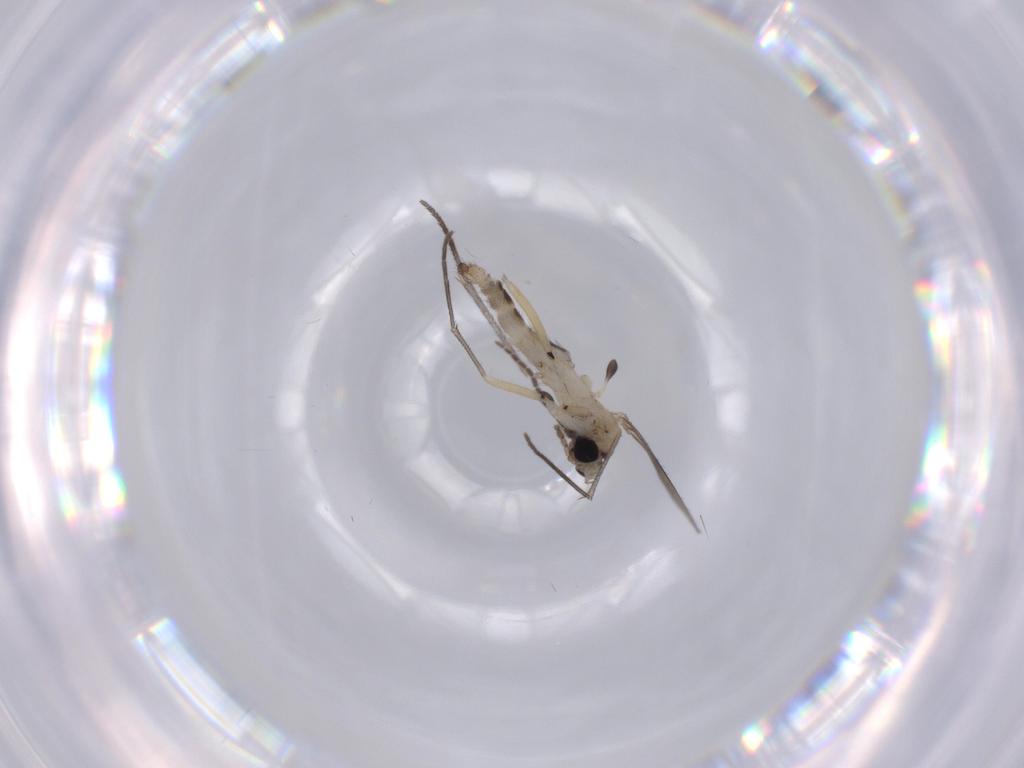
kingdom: Animalia
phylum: Arthropoda
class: Insecta
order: Diptera
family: Sciaridae
